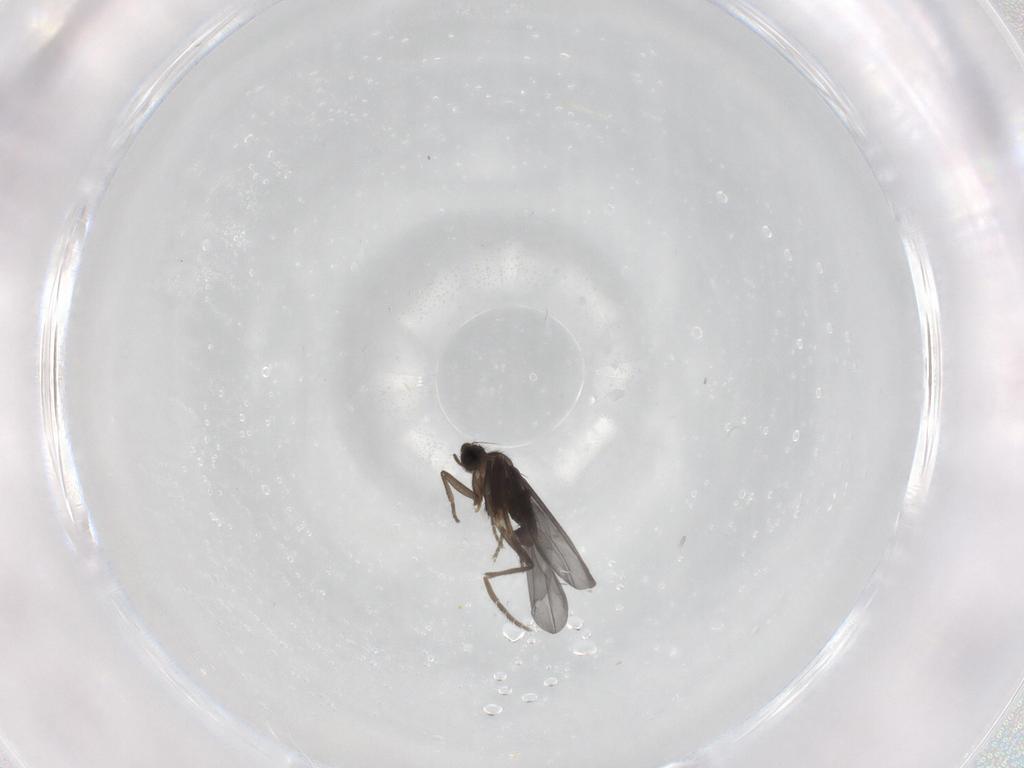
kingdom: Animalia
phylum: Arthropoda
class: Insecta
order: Diptera
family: Phoridae
